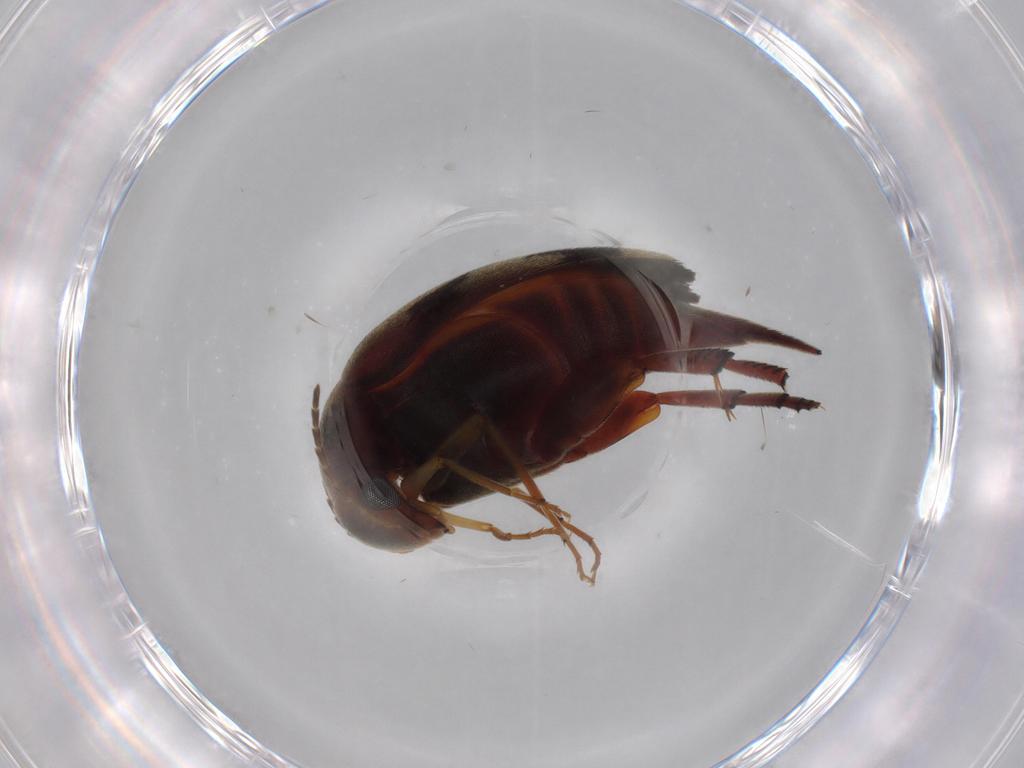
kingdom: Animalia
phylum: Arthropoda
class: Insecta
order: Coleoptera
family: Mordellidae
